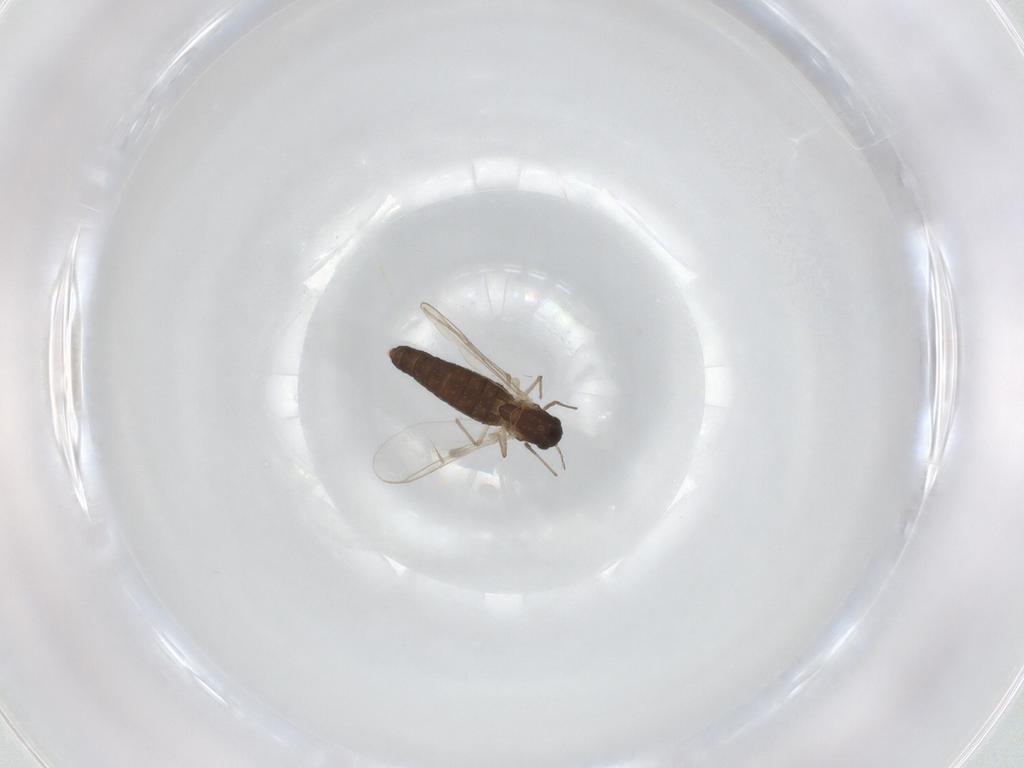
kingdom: Animalia
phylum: Arthropoda
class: Insecta
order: Diptera
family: Chironomidae
